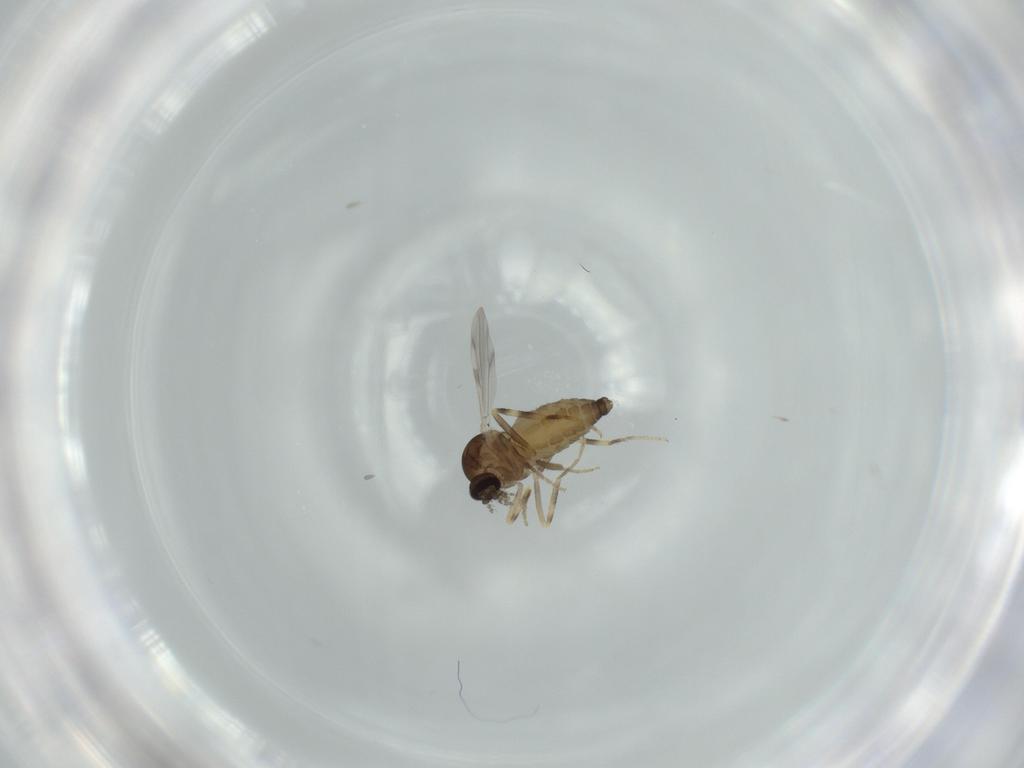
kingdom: Animalia
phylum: Arthropoda
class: Insecta
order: Diptera
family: Ceratopogonidae
